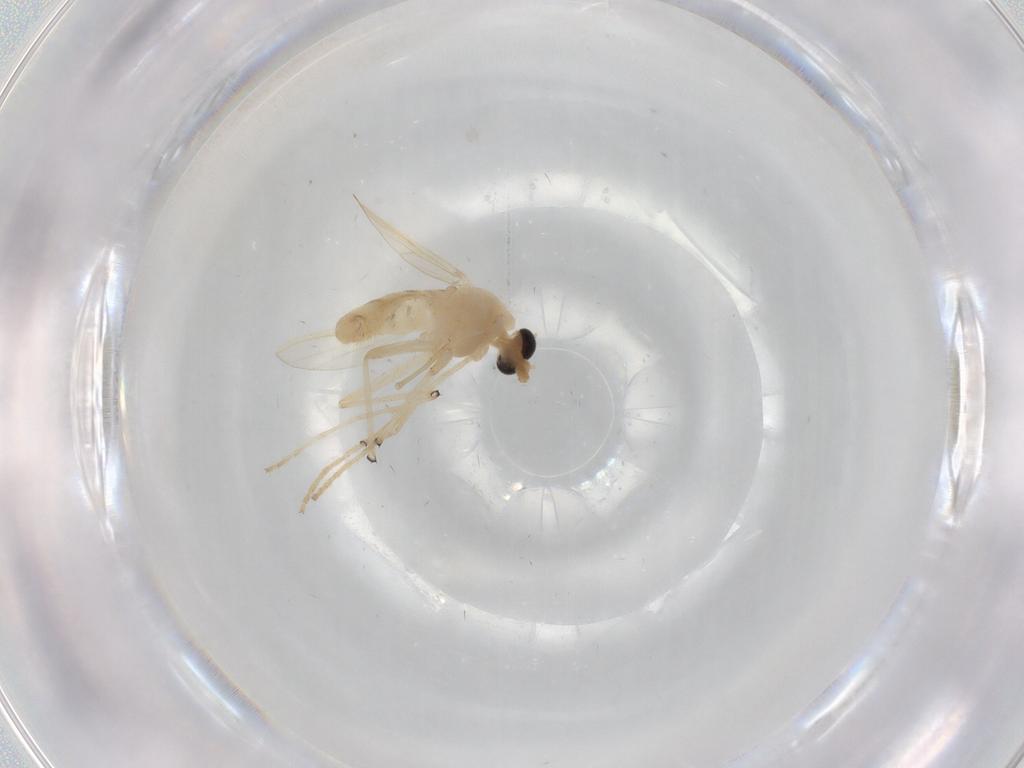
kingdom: Animalia
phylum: Arthropoda
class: Insecta
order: Diptera
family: Chironomidae
